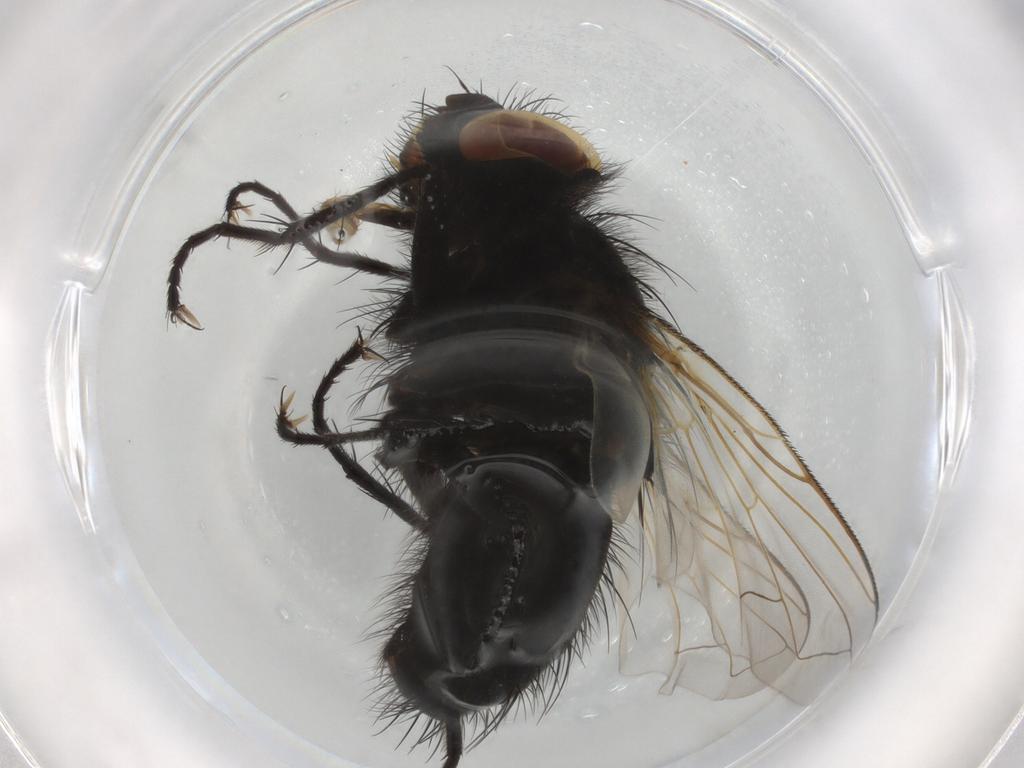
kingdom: Animalia
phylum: Arthropoda
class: Insecta
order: Diptera
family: Tachinidae
